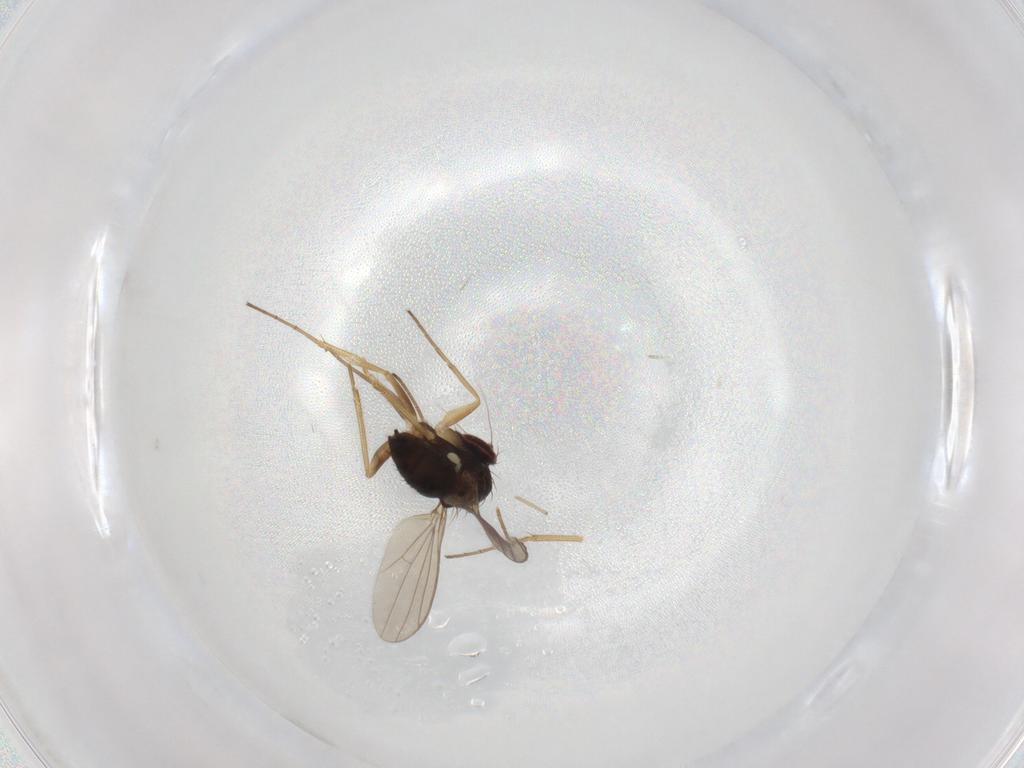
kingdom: Animalia
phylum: Arthropoda
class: Insecta
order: Diptera
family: Dolichopodidae
